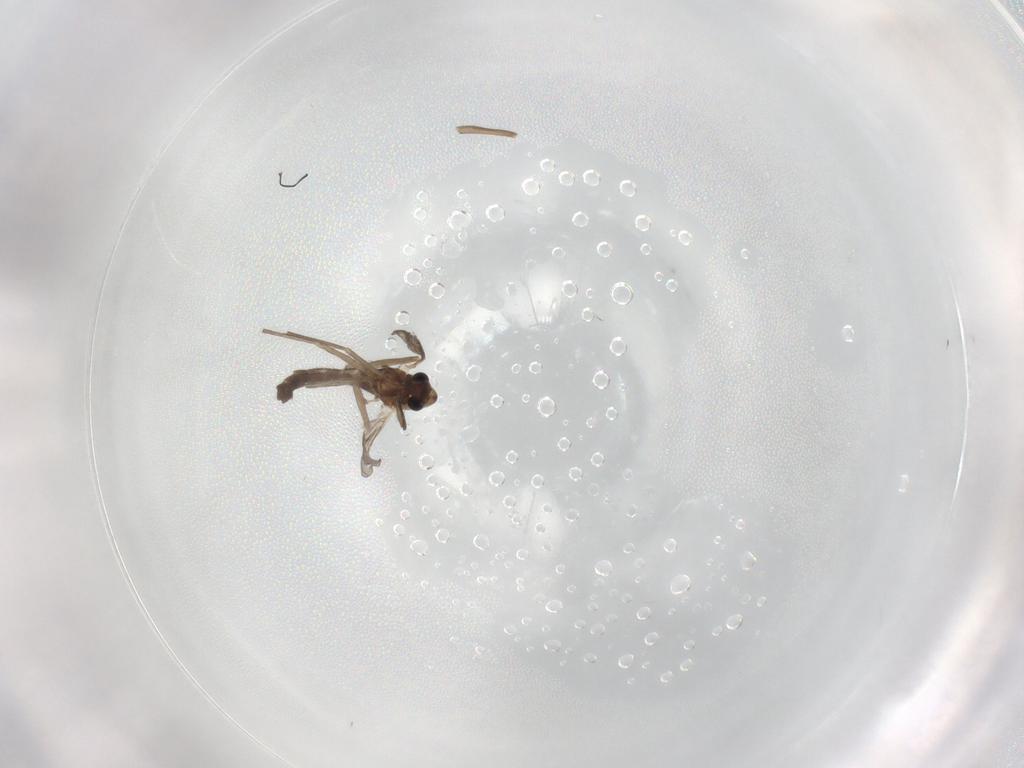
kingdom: Animalia
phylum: Arthropoda
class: Insecta
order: Diptera
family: Chironomidae
